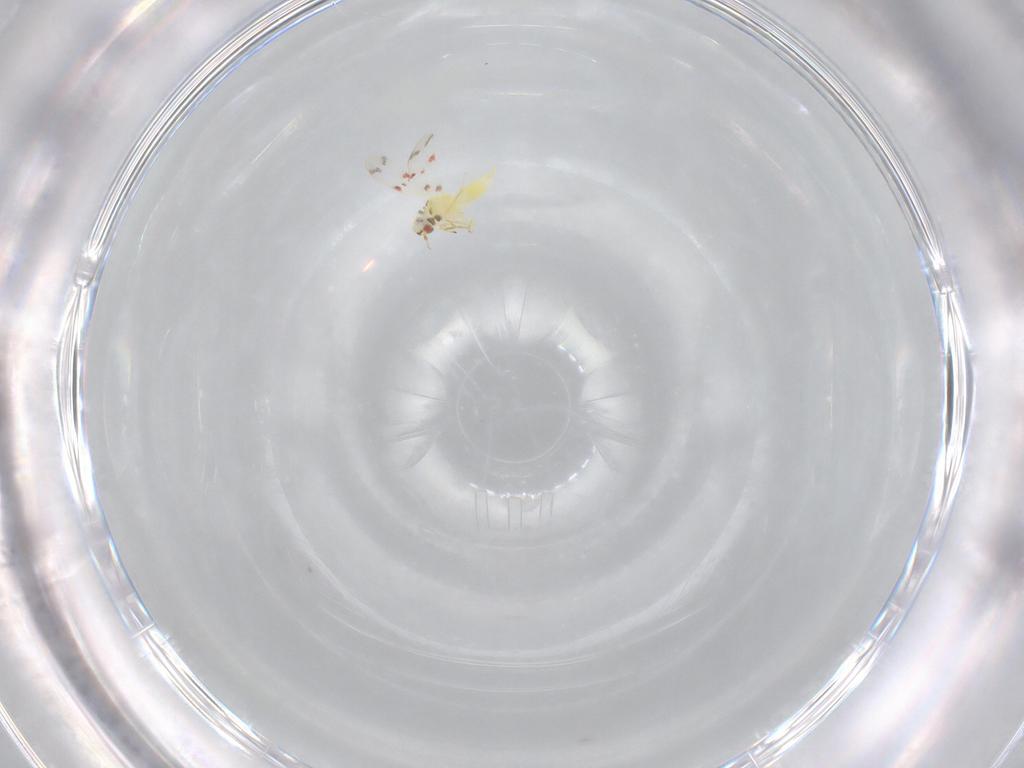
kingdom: Animalia
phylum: Arthropoda
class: Insecta
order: Hemiptera
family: Aleyrodidae
